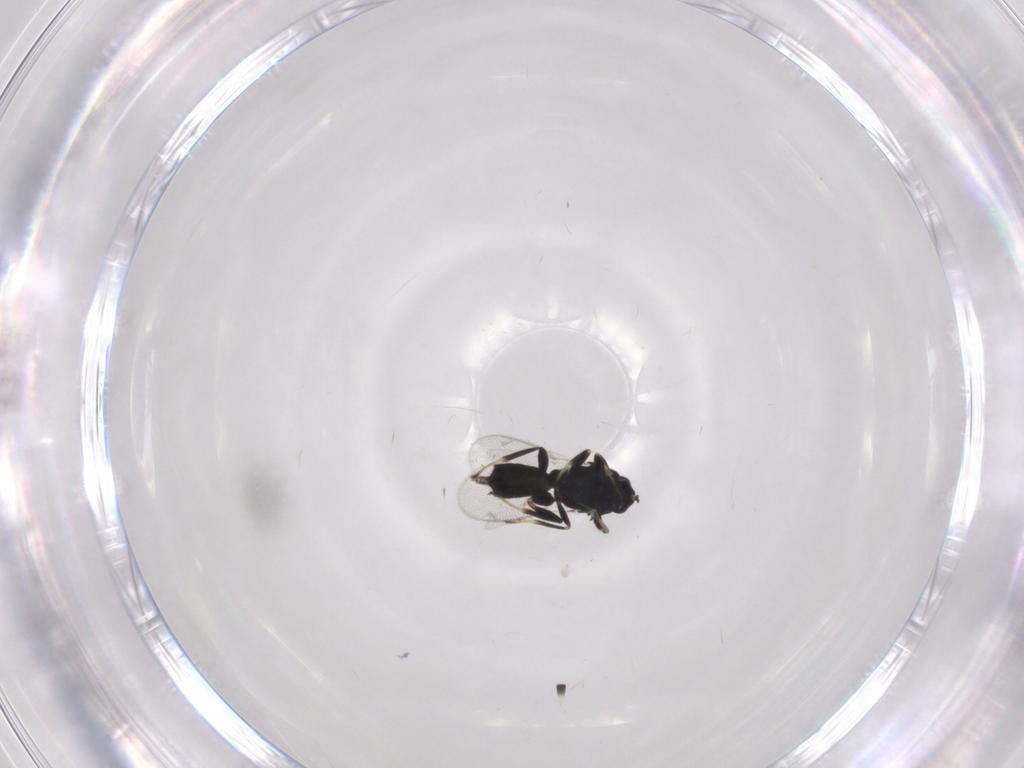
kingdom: Animalia
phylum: Arthropoda
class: Insecta
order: Hymenoptera
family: Eupelmidae
